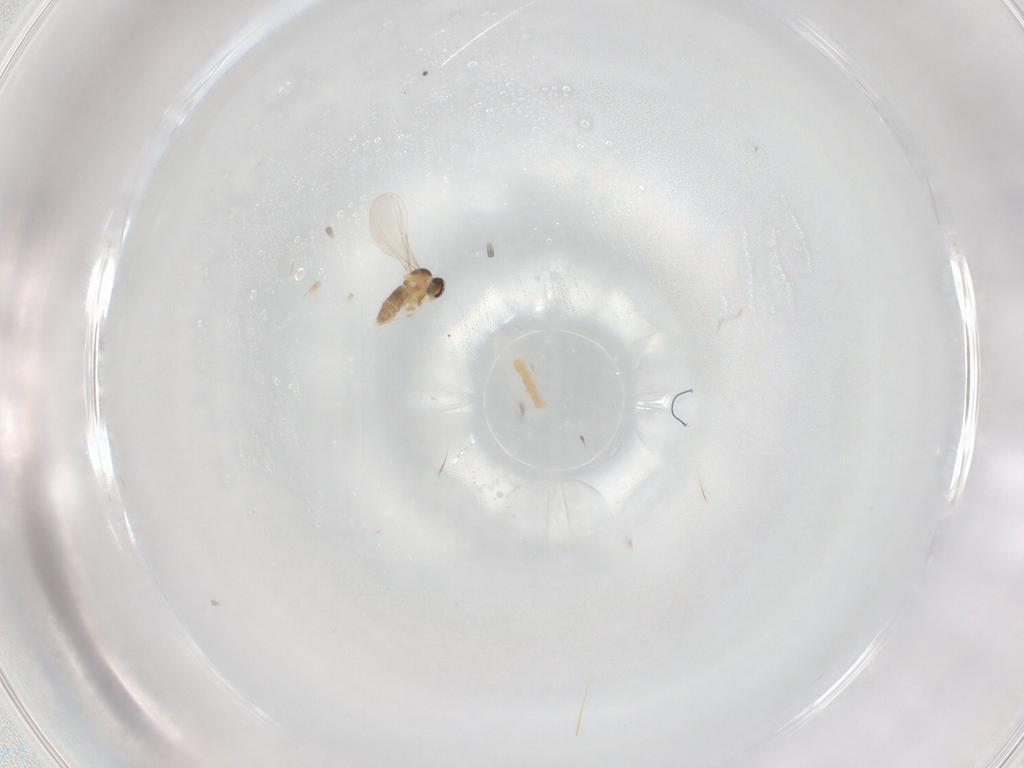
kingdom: Animalia
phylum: Arthropoda
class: Insecta
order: Diptera
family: Cecidomyiidae
